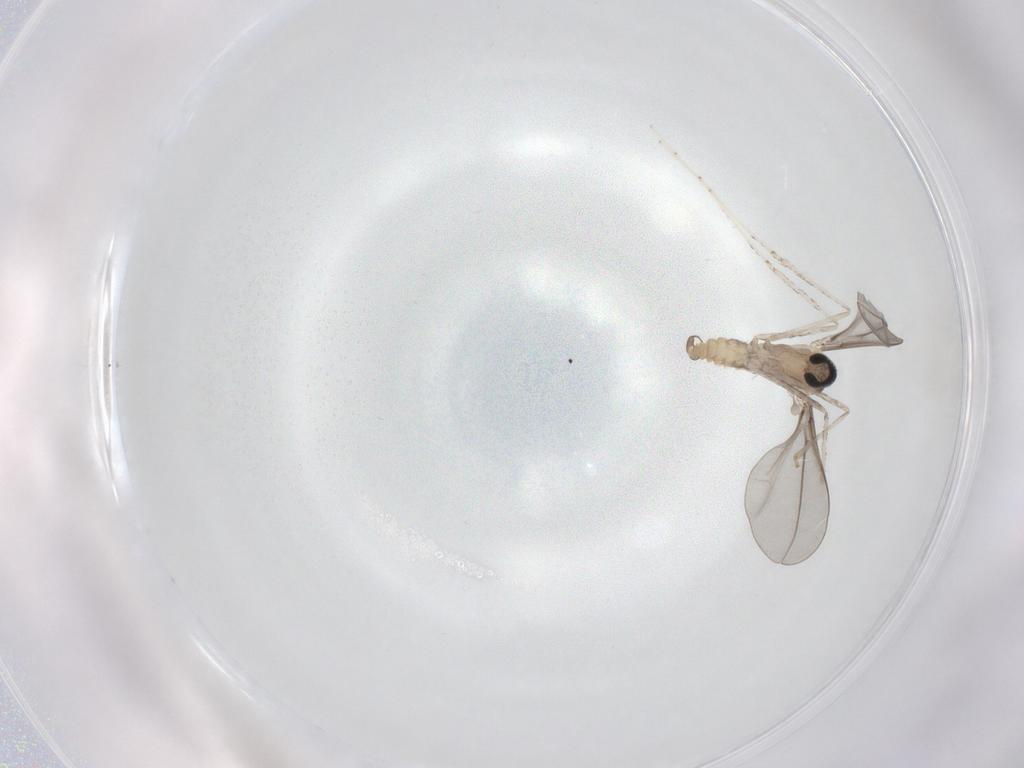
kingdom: Animalia
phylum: Arthropoda
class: Insecta
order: Diptera
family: Cecidomyiidae
